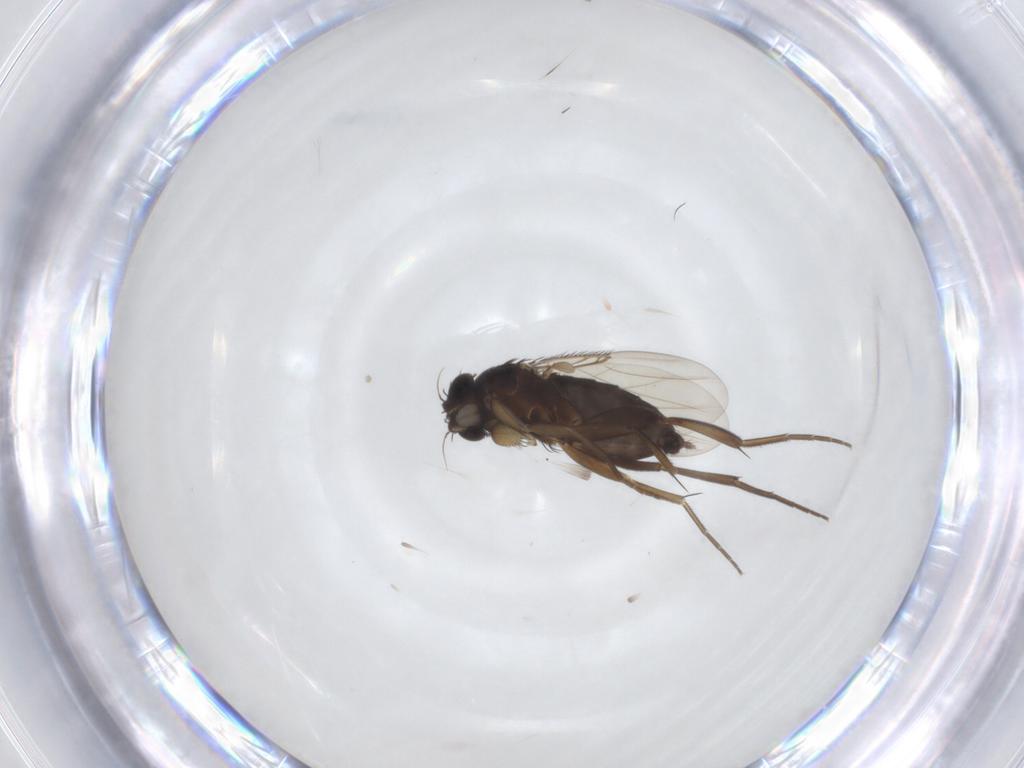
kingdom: Animalia
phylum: Arthropoda
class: Insecta
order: Diptera
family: Phoridae
